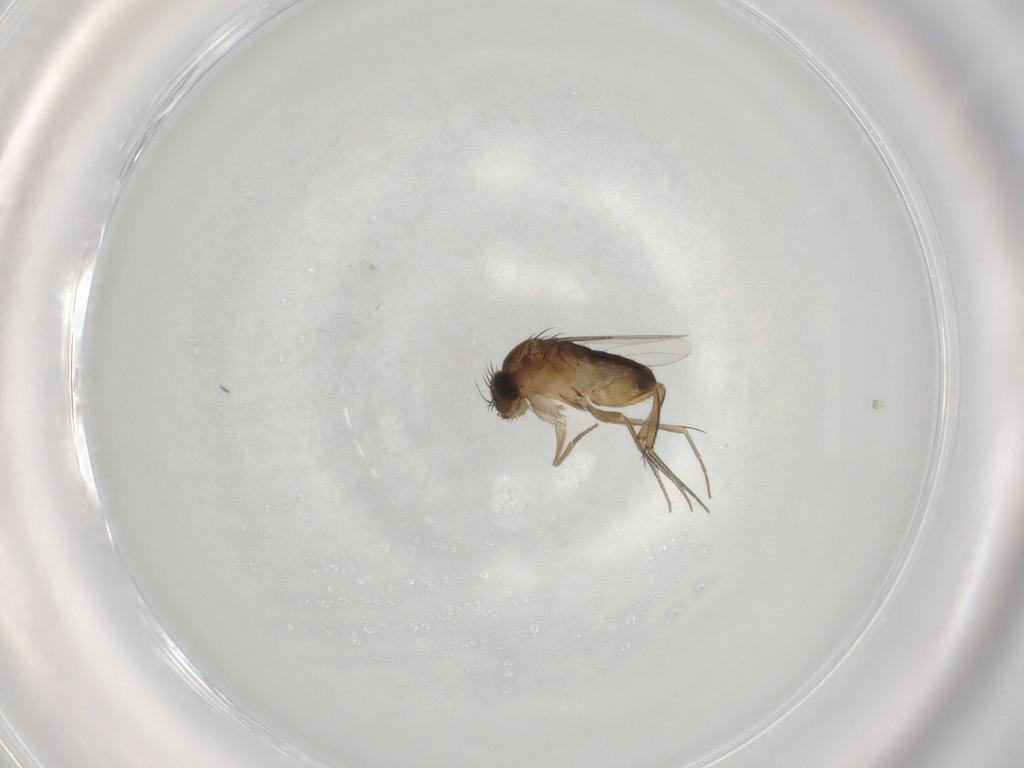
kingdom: Animalia
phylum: Arthropoda
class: Insecta
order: Diptera
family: Phoridae
